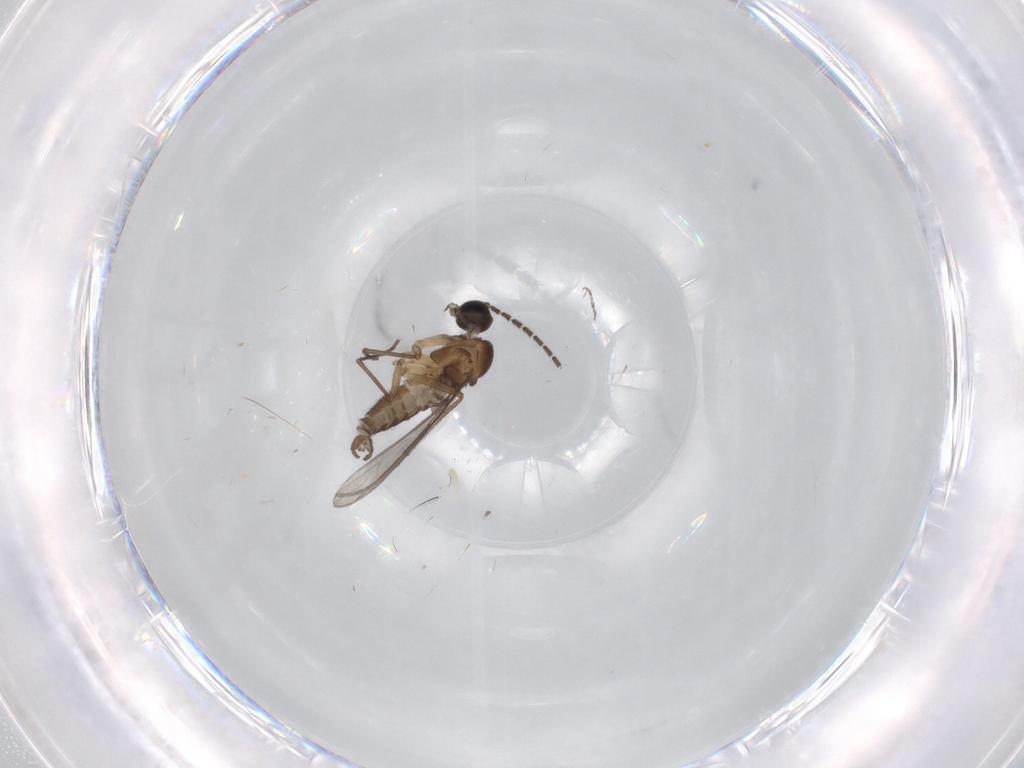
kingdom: Animalia
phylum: Arthropoda
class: Insecta
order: Diptera
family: Sciaridae
